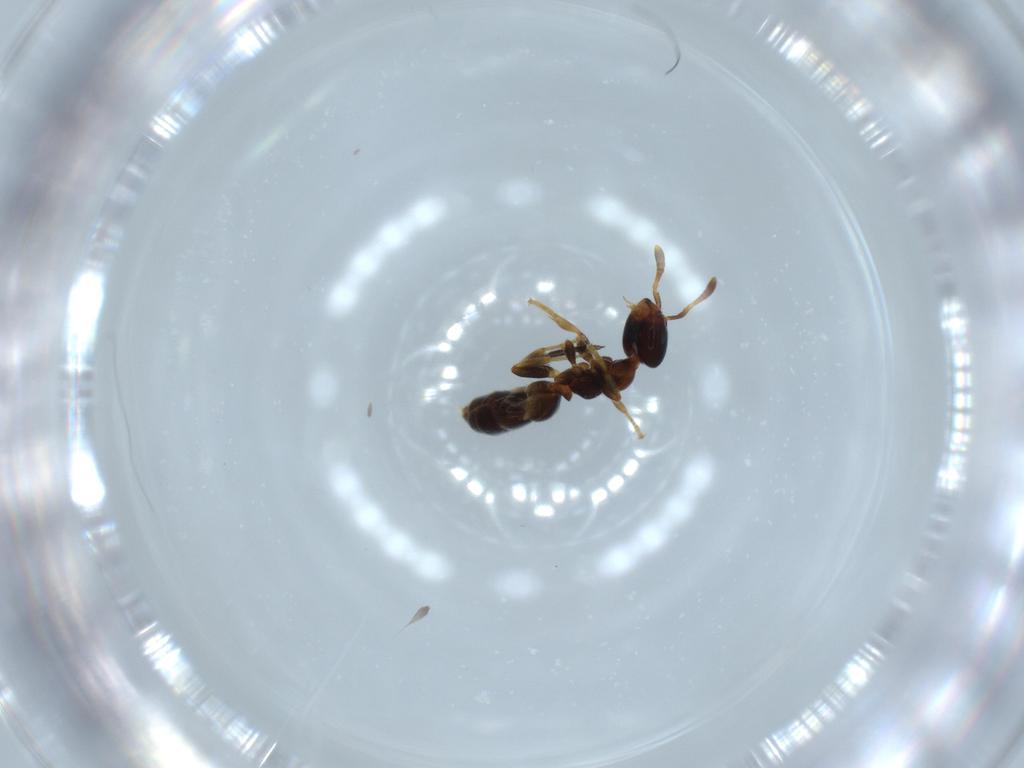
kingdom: Animalia
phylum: Arthropoda
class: Insecta
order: Hymenoptera
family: Formicidae
